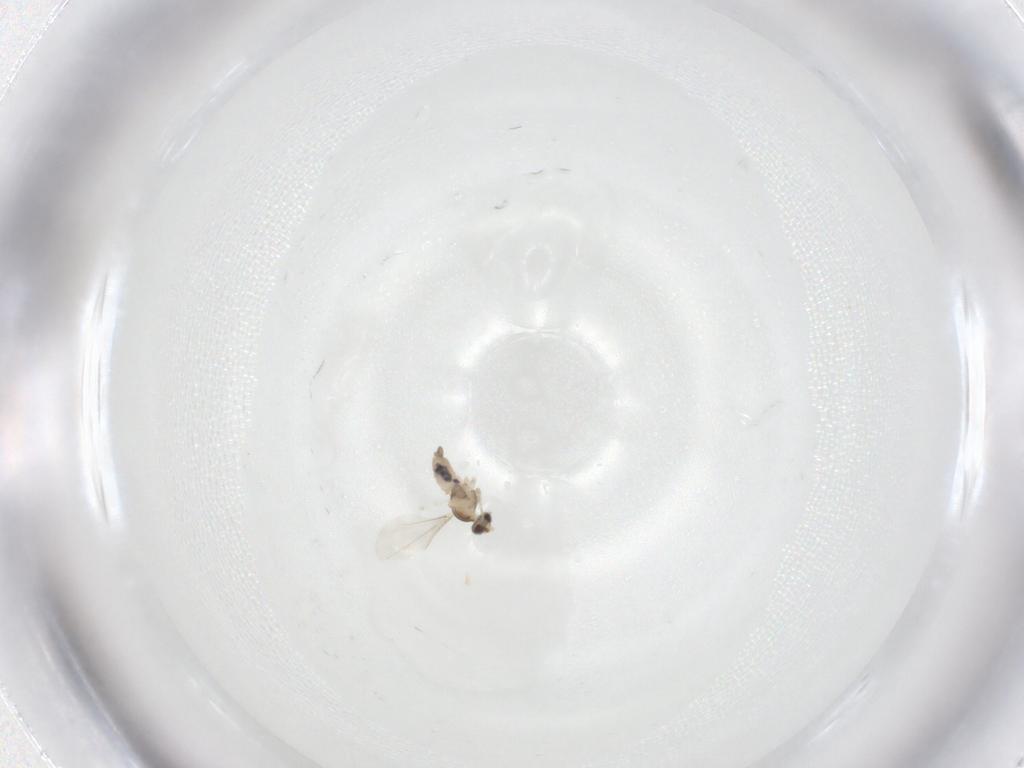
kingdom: Animalia
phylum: Arthropoda
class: Insecta
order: Diptera
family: Cecidomyiidae
